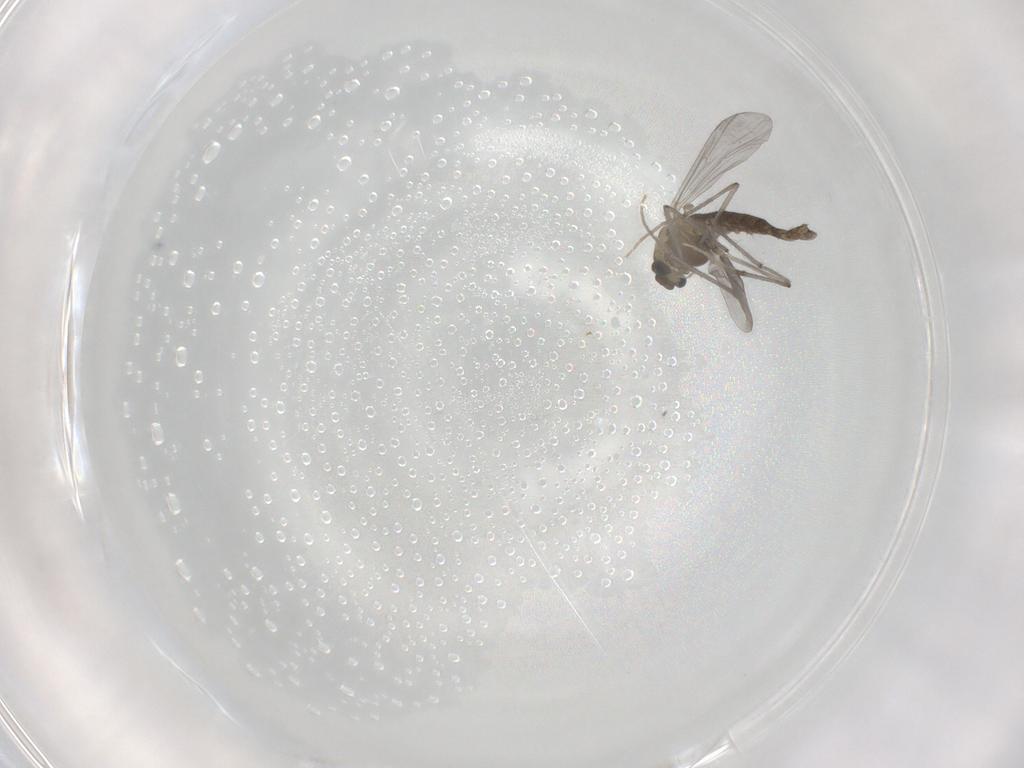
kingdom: Animalia
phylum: Arthropoda
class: Insecta
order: Diptera
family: Chironomidae
